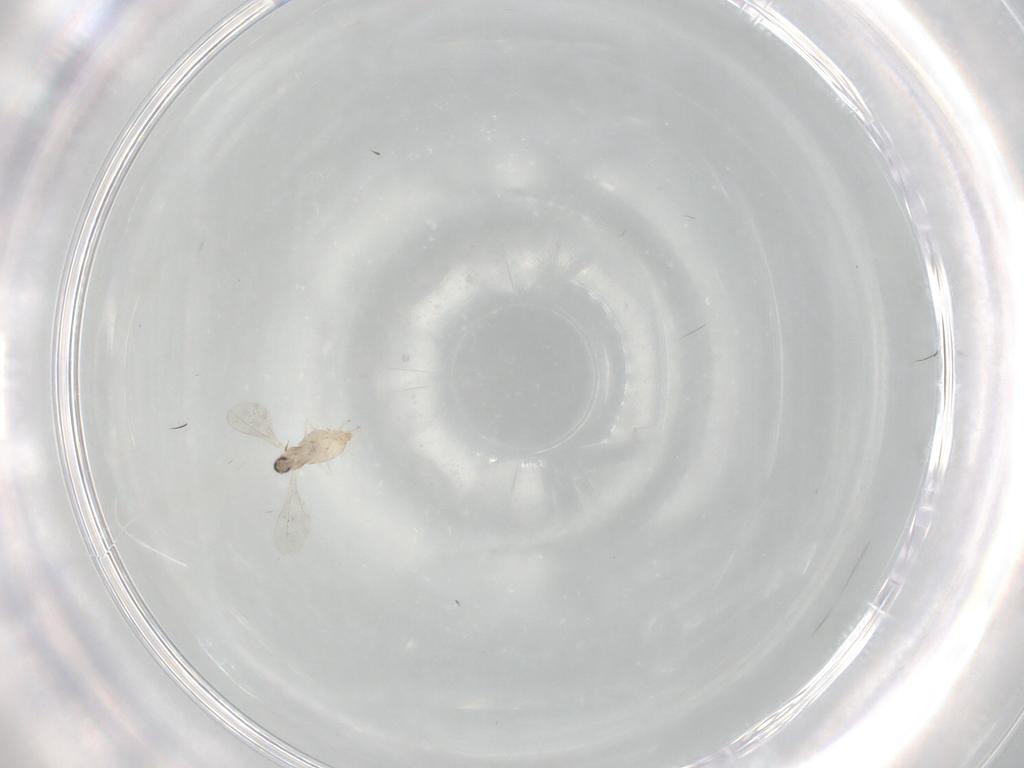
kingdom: Animalia
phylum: Arthropoda
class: Insecta
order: Diptera
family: Cecidomyiidae
